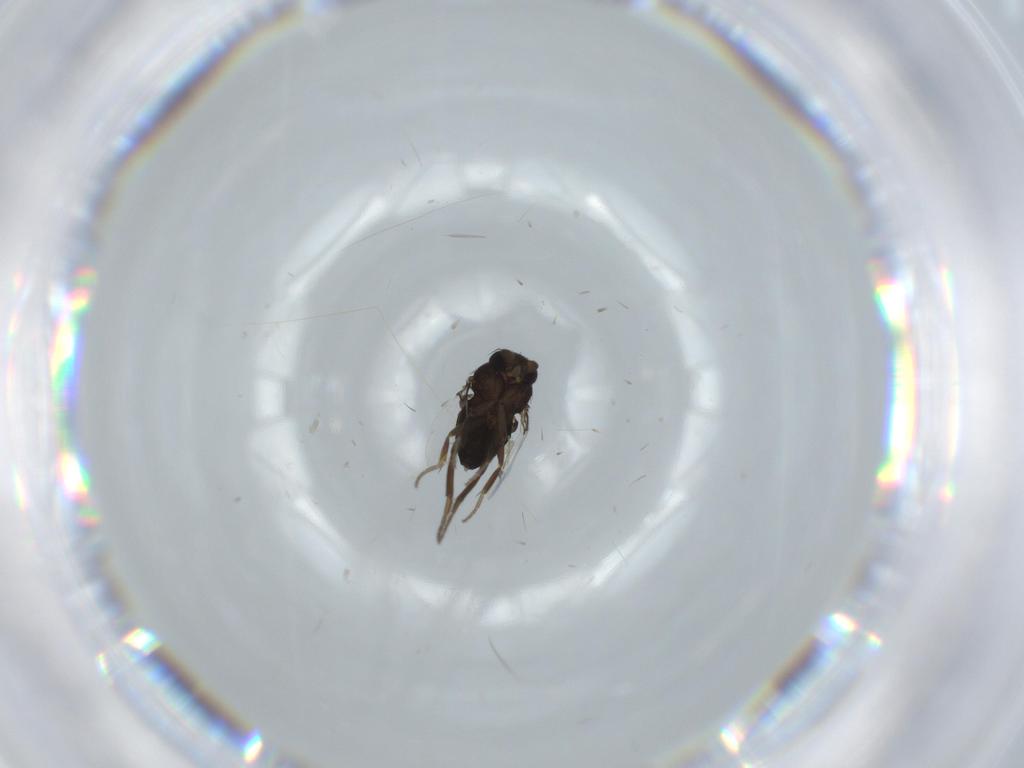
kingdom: Animalia
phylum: Arthropoda
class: Insecta
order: Diptera
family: Phoridae
